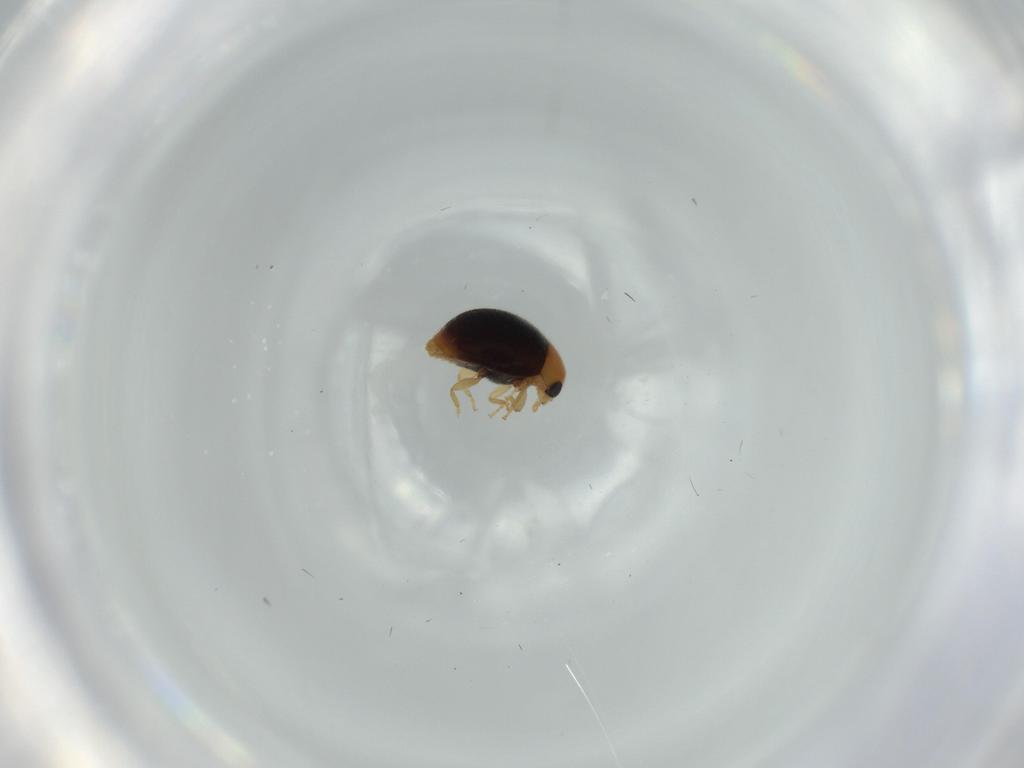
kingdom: Animalia
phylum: Arthropoda
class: Insecta
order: Coleoptera
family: Coccinellidae
